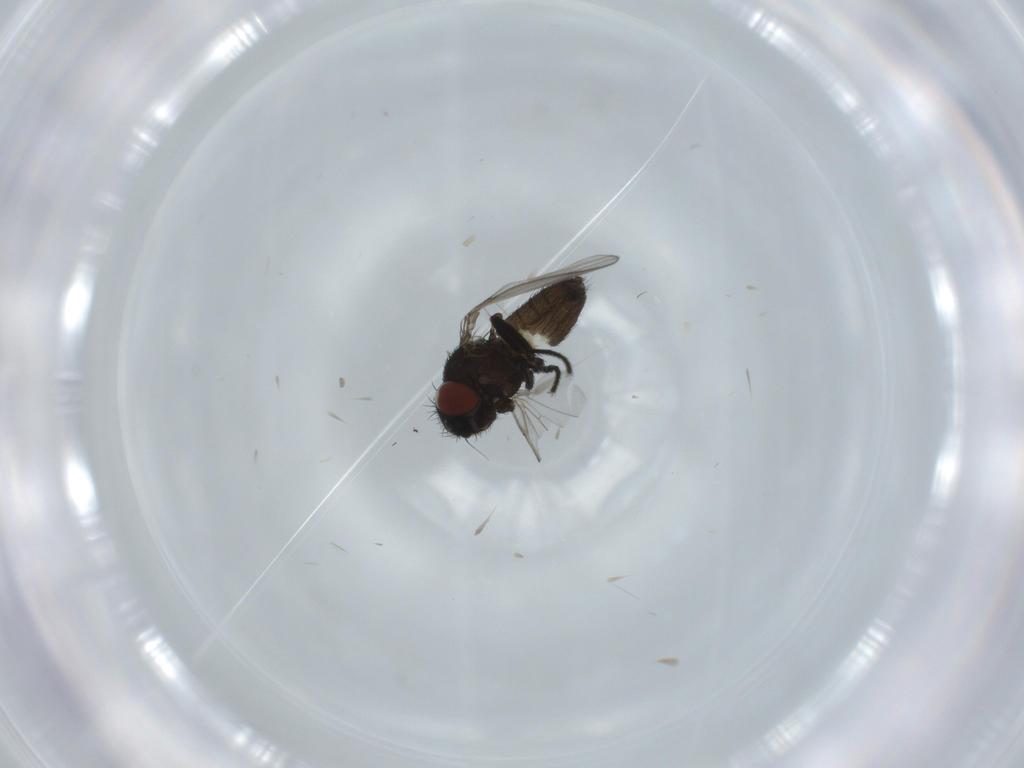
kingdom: Animalia
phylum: Arthropoda
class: Insecta
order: Diptera
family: Milichiidae
